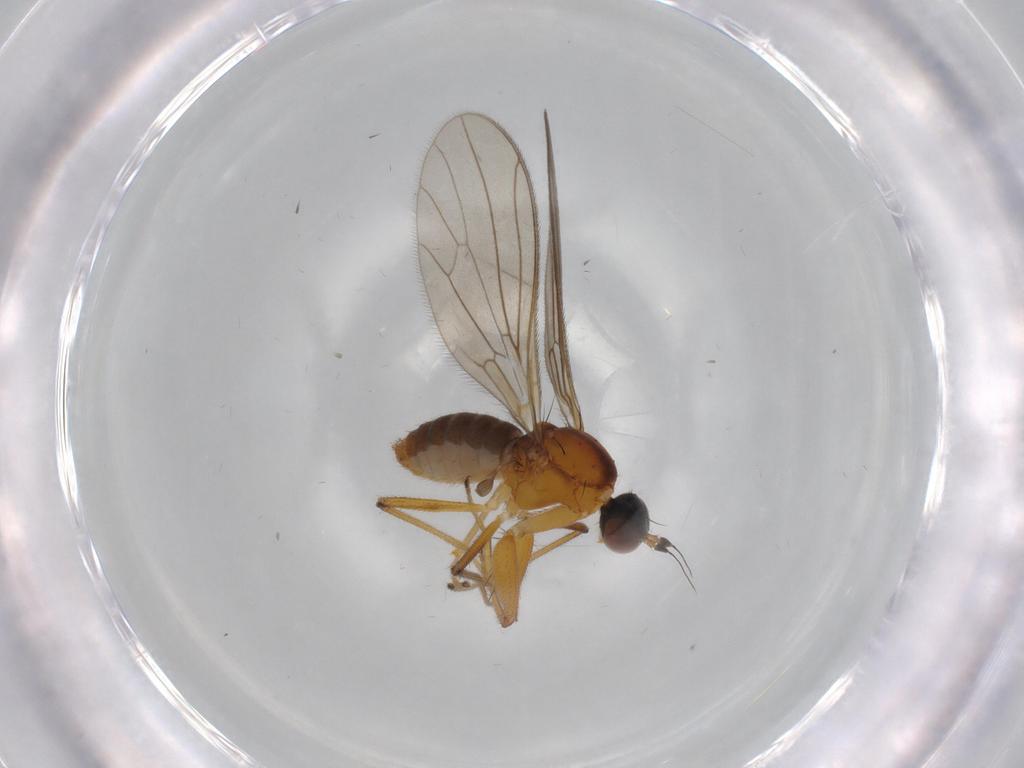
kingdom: Animalia
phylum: Arthropoda
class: Insecta
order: Diptera
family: Empididae
